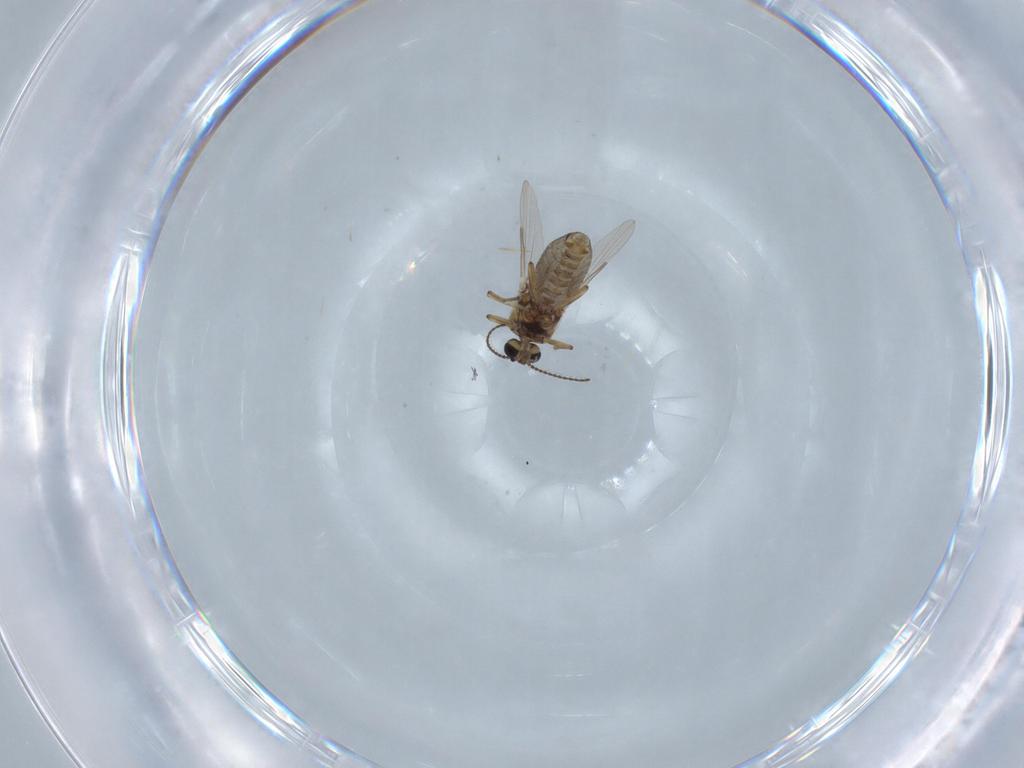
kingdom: Animalia
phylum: Arthropoda
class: Insecta
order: Diptera
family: Ceratopogonidae
